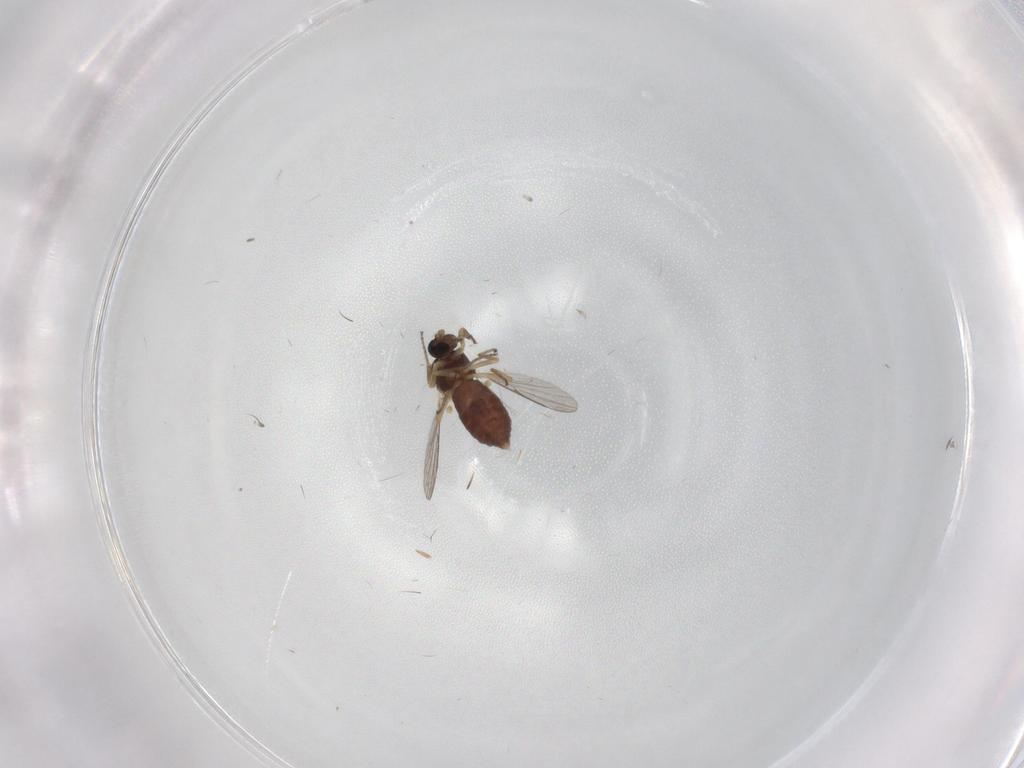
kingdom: Animalia
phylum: Arthropoda
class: Insecta
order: Diptera
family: Ceratopogonidae
